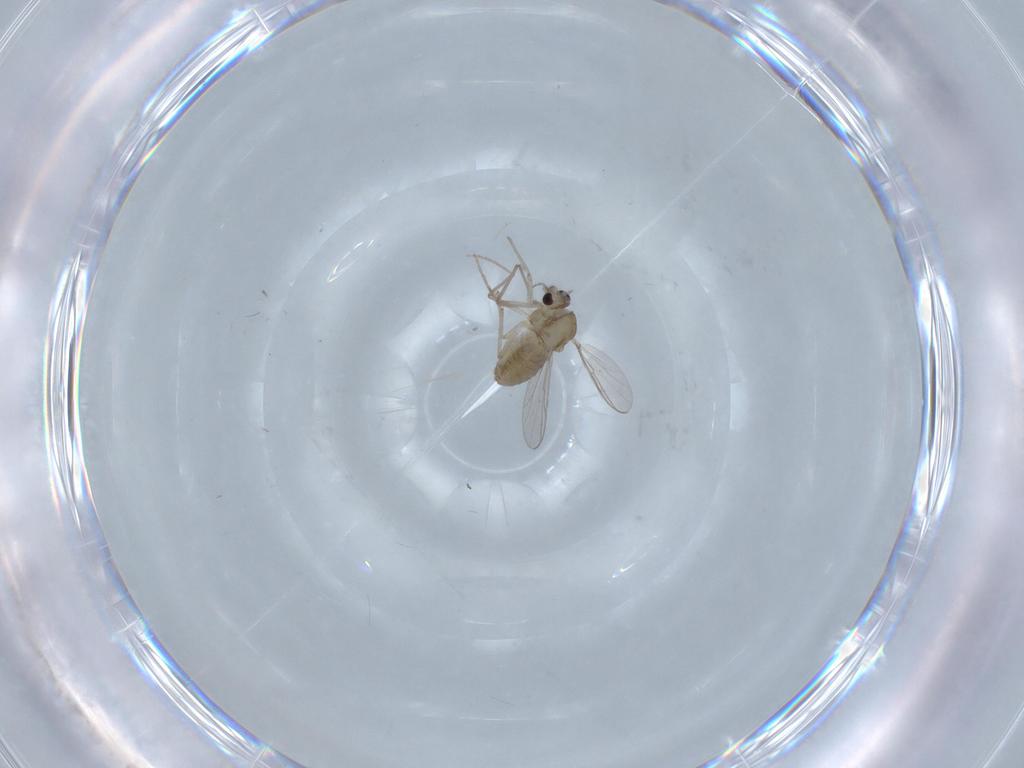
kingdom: Animalia
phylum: Arthropoda
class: Insecta
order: Diptera
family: Chironomidae
